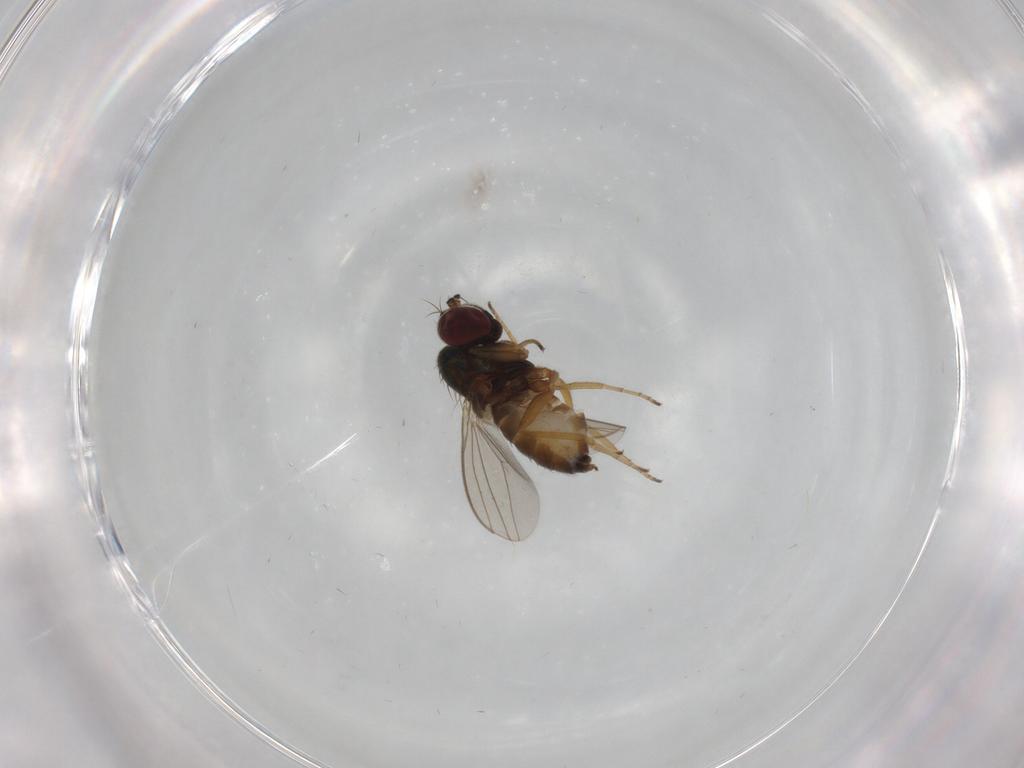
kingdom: Animalia
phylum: Arthropoda
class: Insecta
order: Diptera
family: Dolichopodidae
